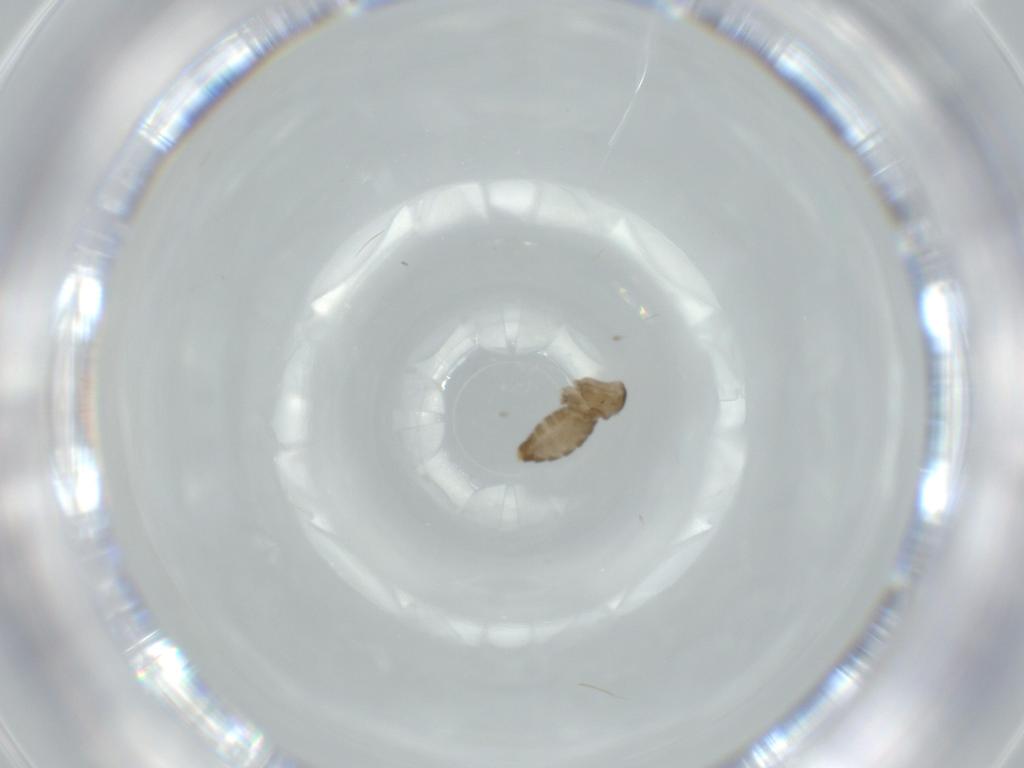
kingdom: Animalia
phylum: Arthropoda
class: Insecta
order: Diptera
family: Cecidomyiidae
